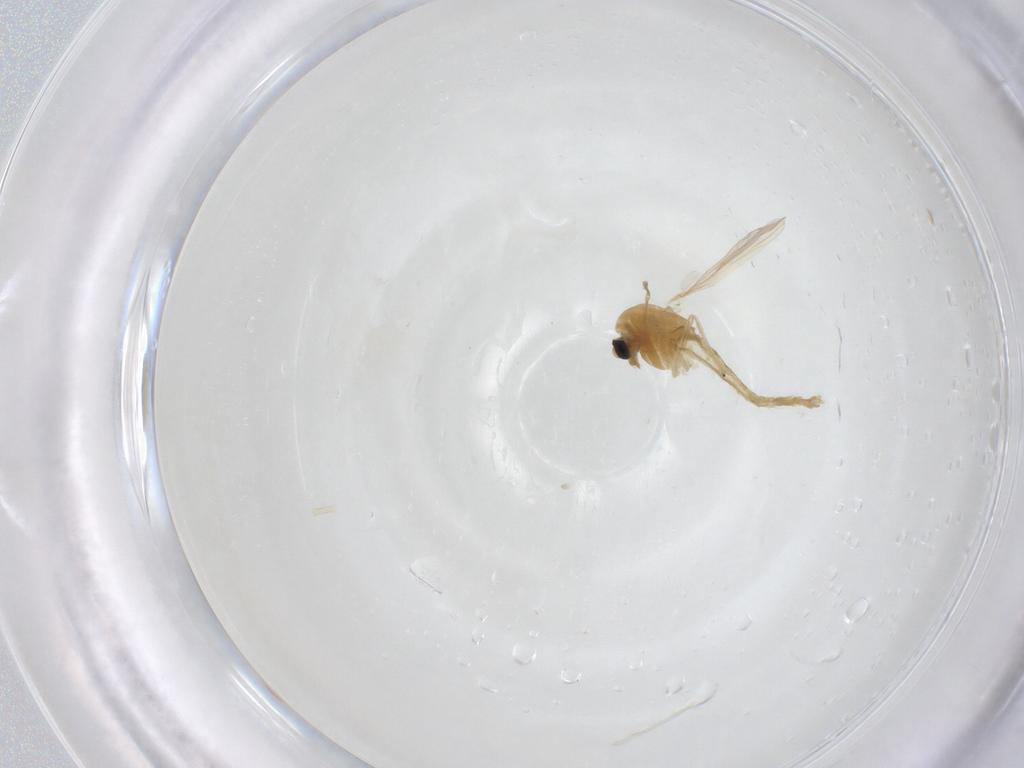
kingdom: Animalia
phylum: Arthropoda
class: Insecta
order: Diptera
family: Chironomidae
